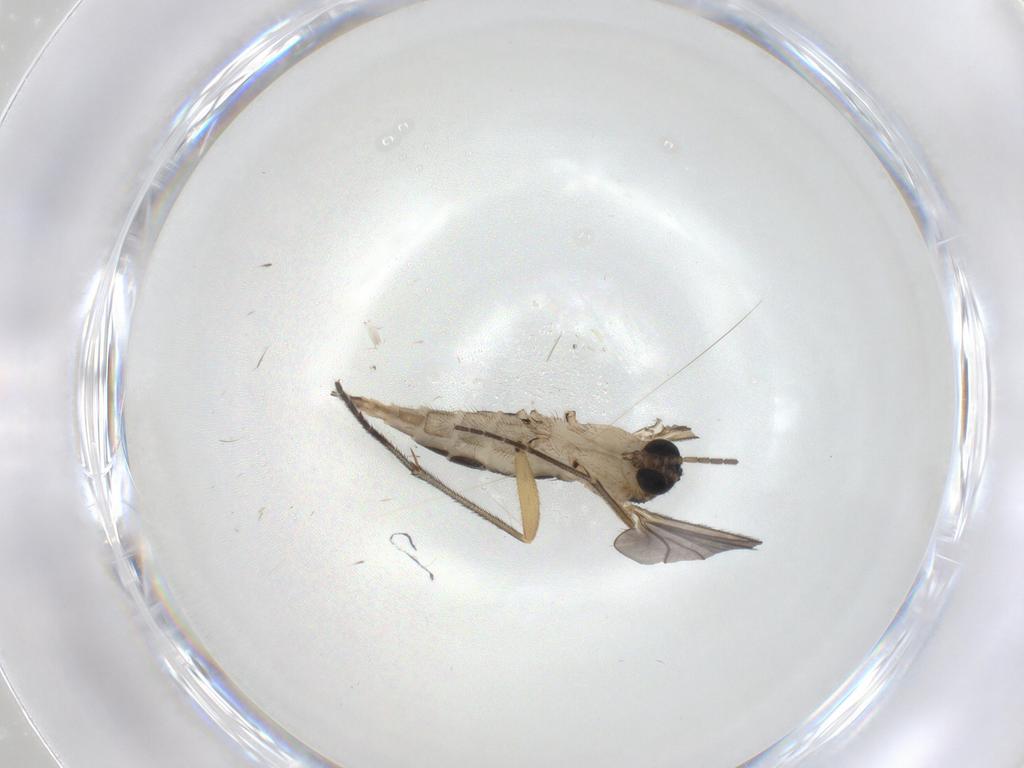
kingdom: Animalia
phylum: Arthropoda
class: Insecta
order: Diptera
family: Sciaridae
